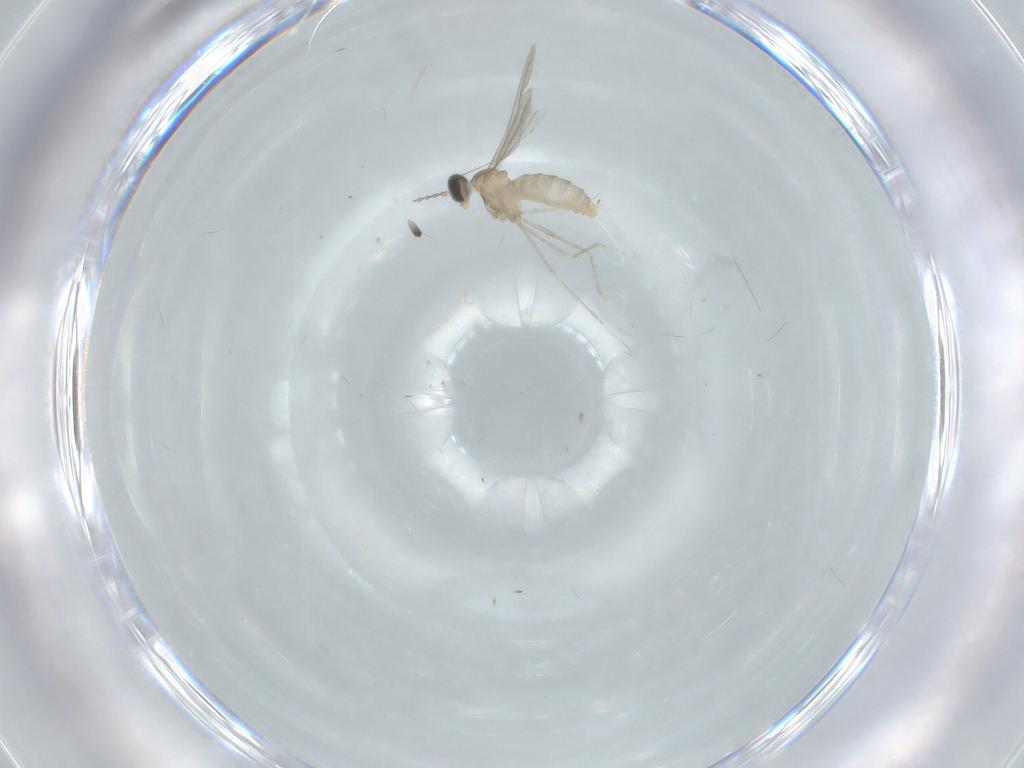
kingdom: Animalia
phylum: Arthropoda
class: Insecta
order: Diptera
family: Cecidomyiidae
